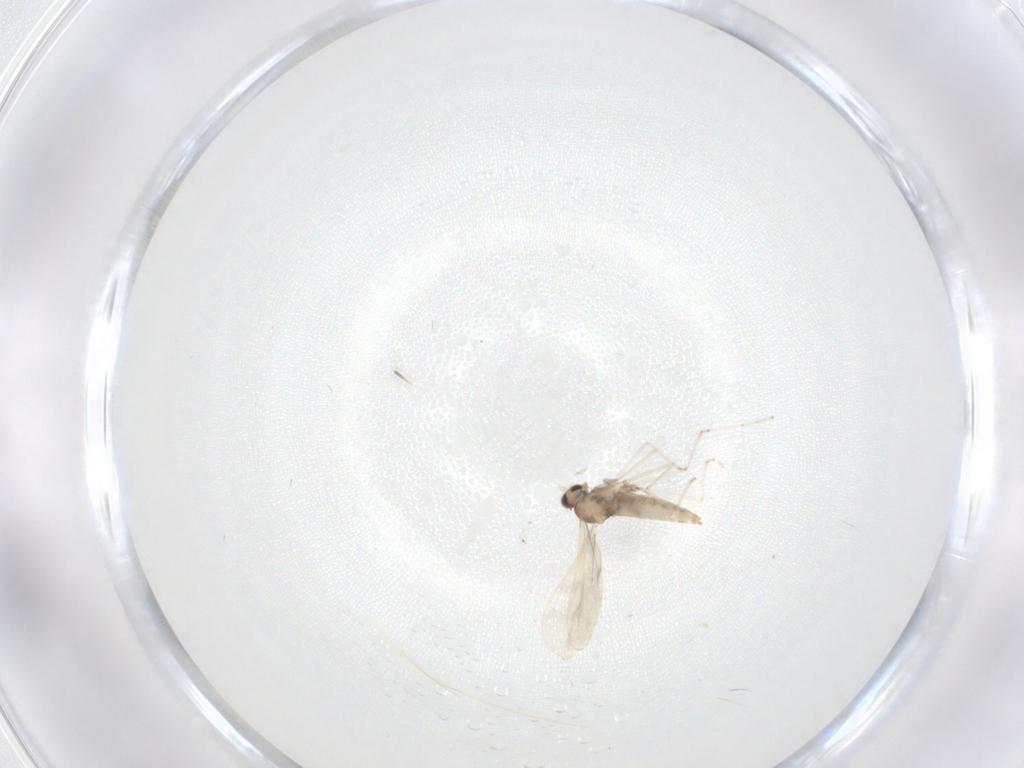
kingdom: Animalia
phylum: Arthropoda
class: Insecta
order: Diptera
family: Cecidomyiidae
